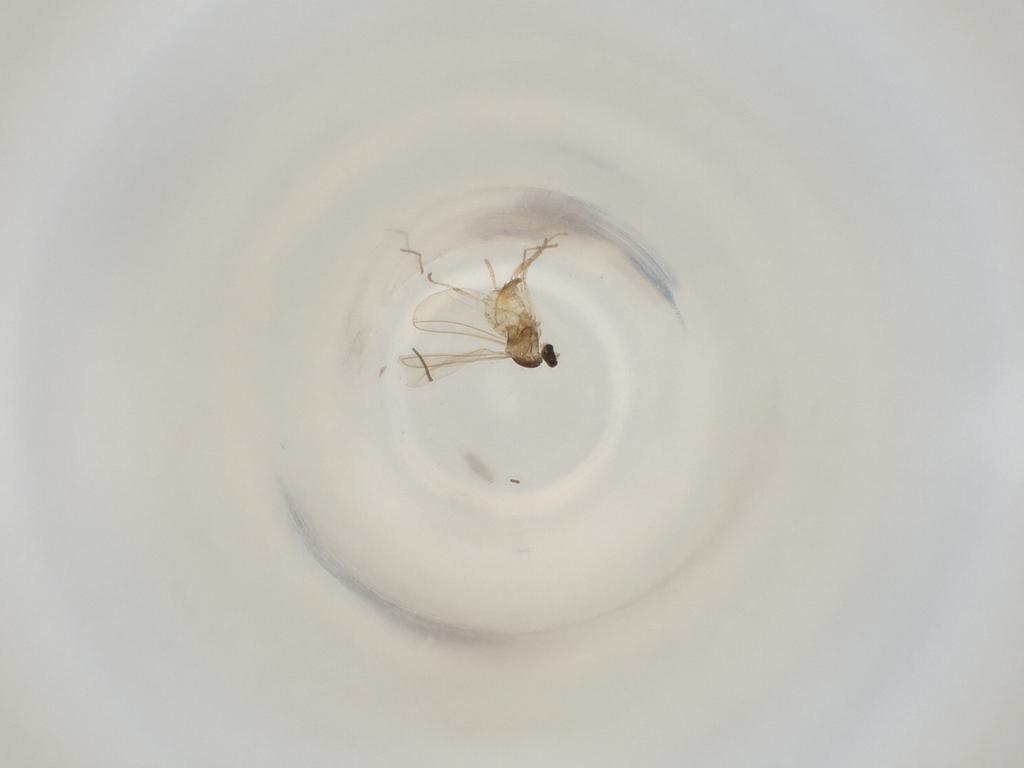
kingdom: Animalia
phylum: Arthropoda
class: Insecta
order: Diptera
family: Cecidomyiidae
